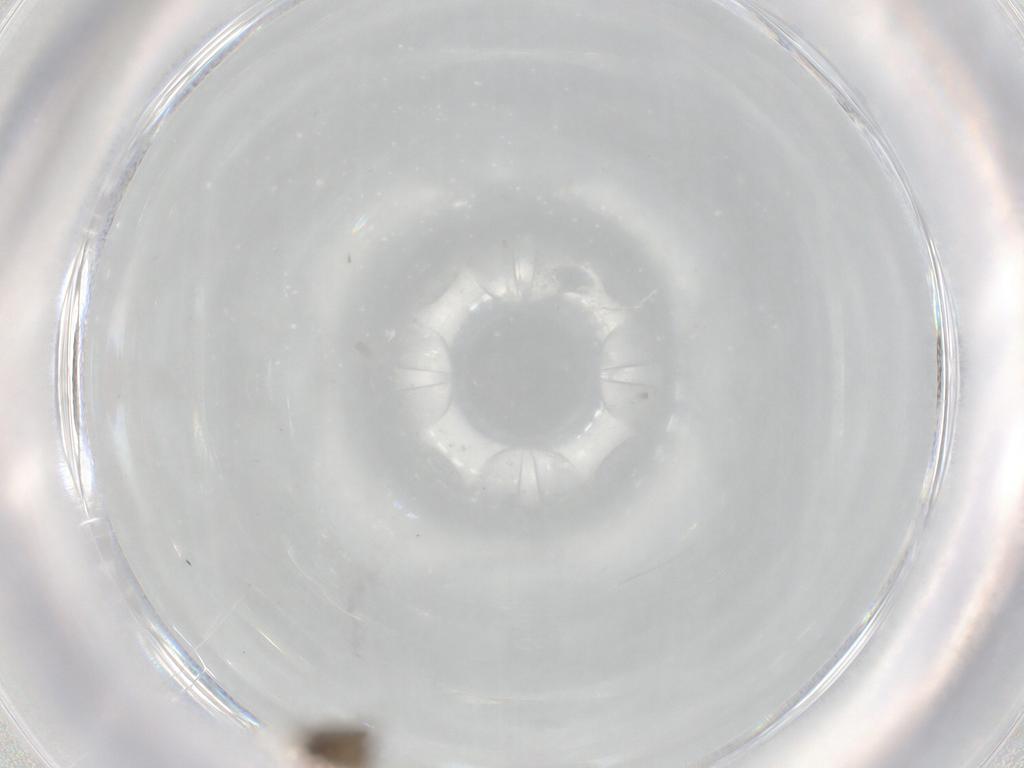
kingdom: Animalia
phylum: Arthropoda
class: Insecta
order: Diptera
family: Cecidomyiidae
